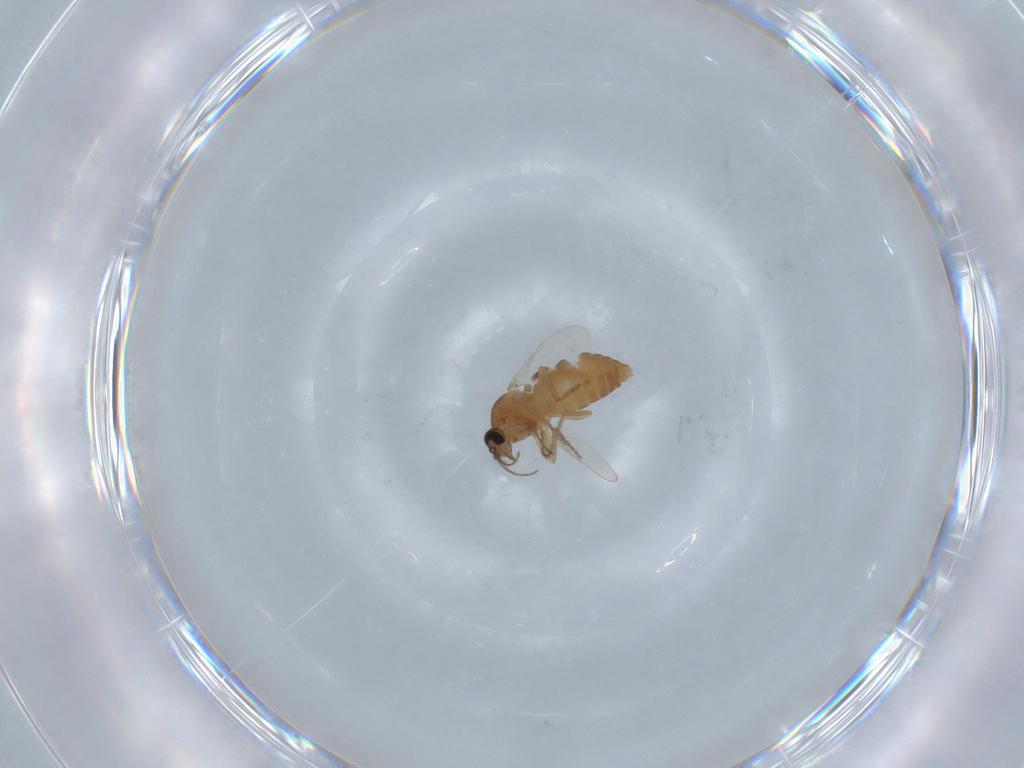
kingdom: Animalia
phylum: Arthropoda
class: Insecta
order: Diptera
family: Ceratopogonidae
